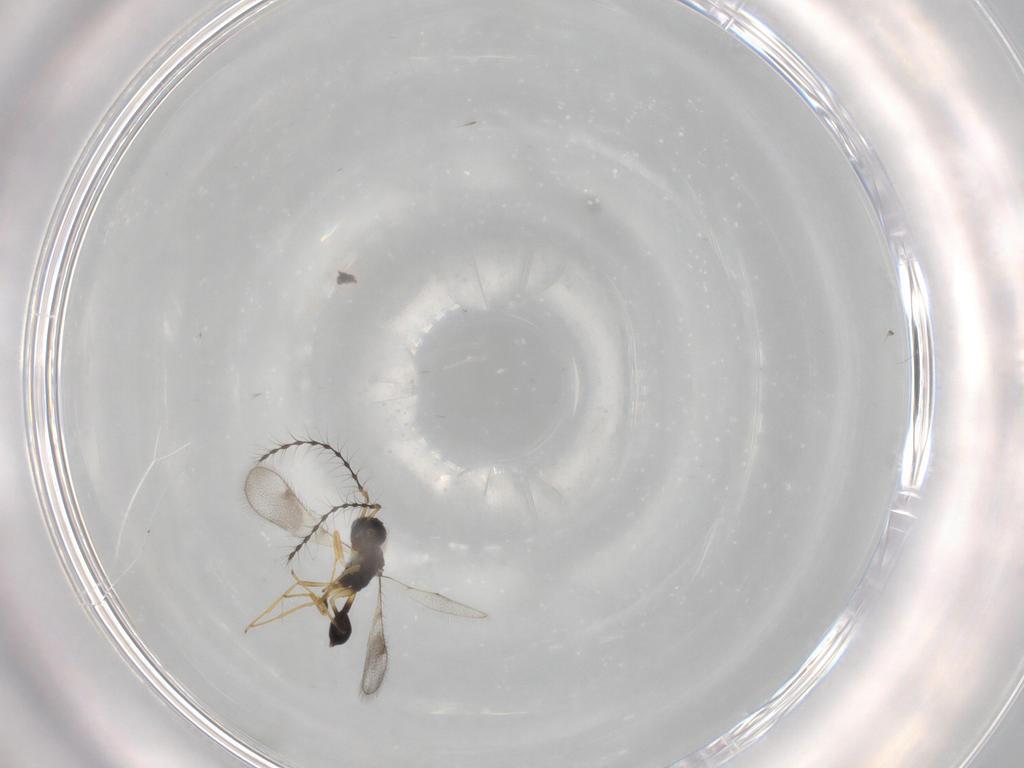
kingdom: Animalia
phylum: Arthropoda
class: Insecta
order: Hymenoptera
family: Diparidae
